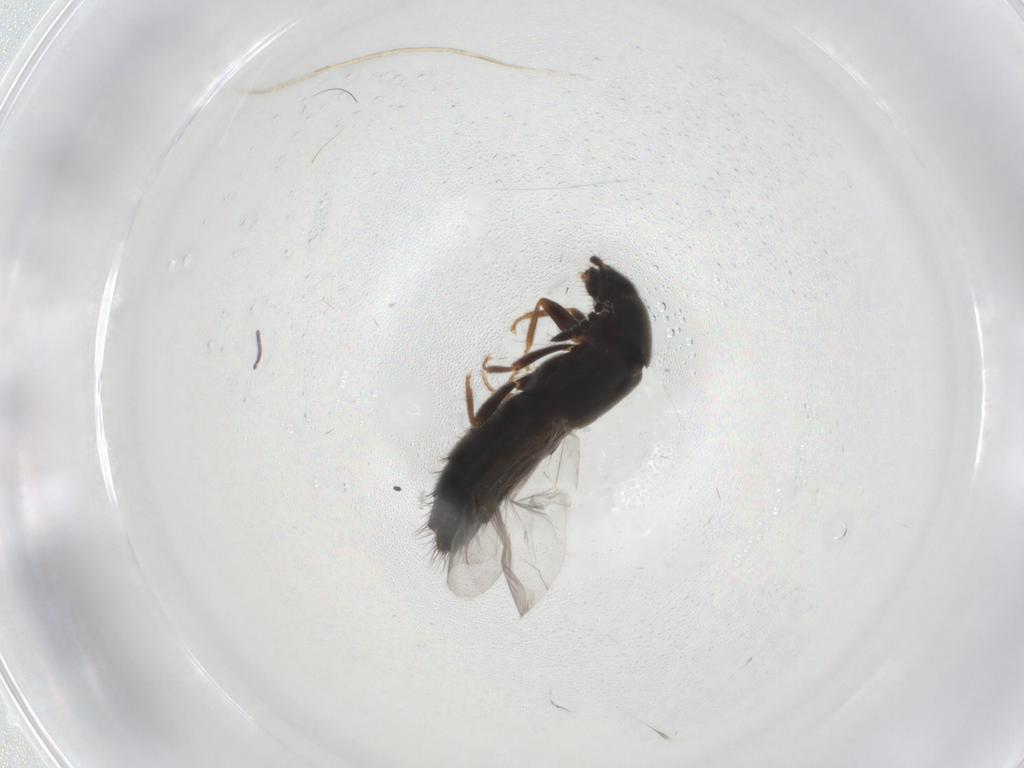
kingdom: Animalia
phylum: Arthropoda
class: Insecta
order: Coleoptera
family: Staphylinidae
